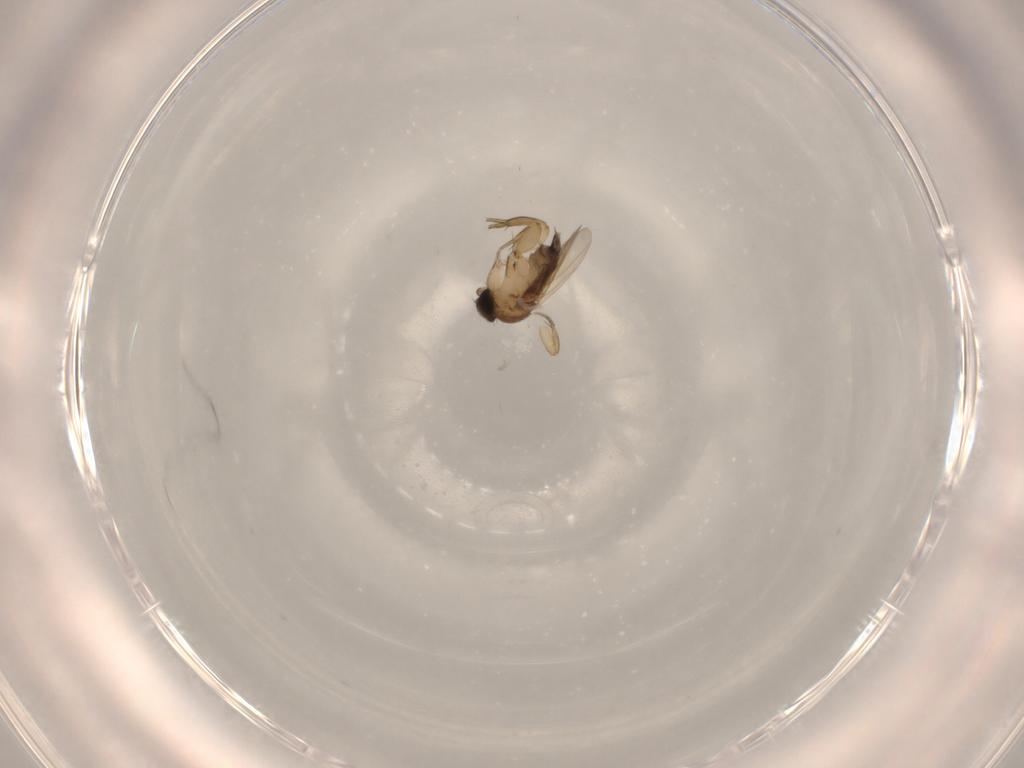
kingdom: Animalia
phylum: Arthropoda
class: Insecta
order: Diptera
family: Phoridae
